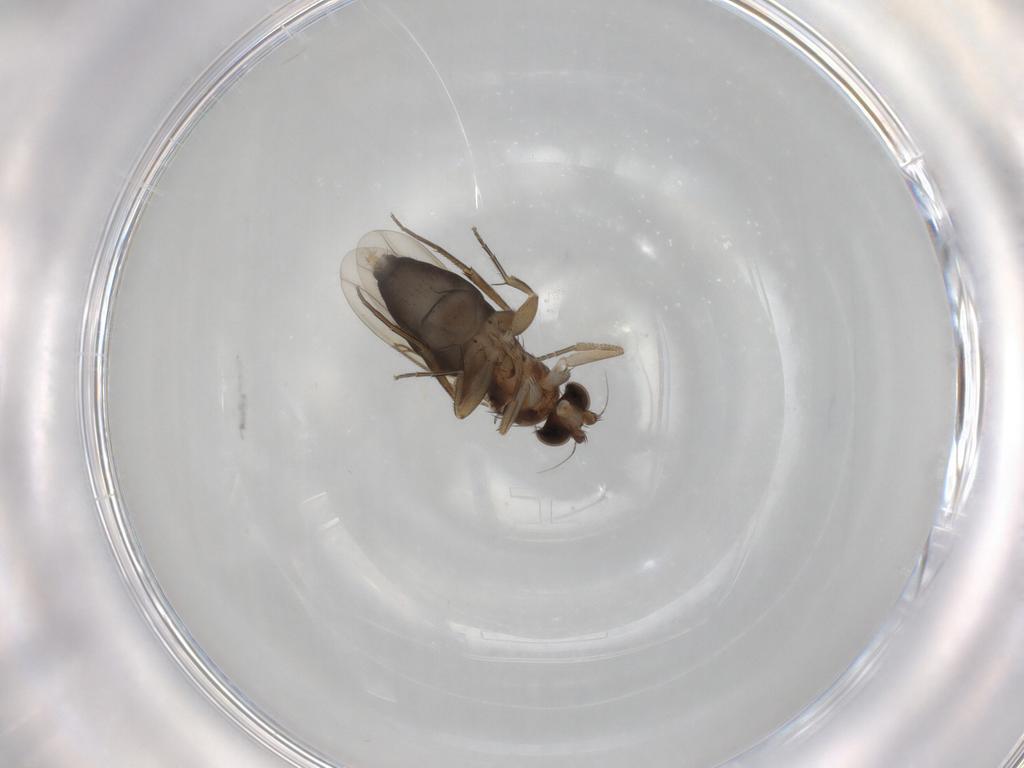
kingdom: Animalia
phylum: Arthropoda
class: Insecta
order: Diptera
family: Phoridae
